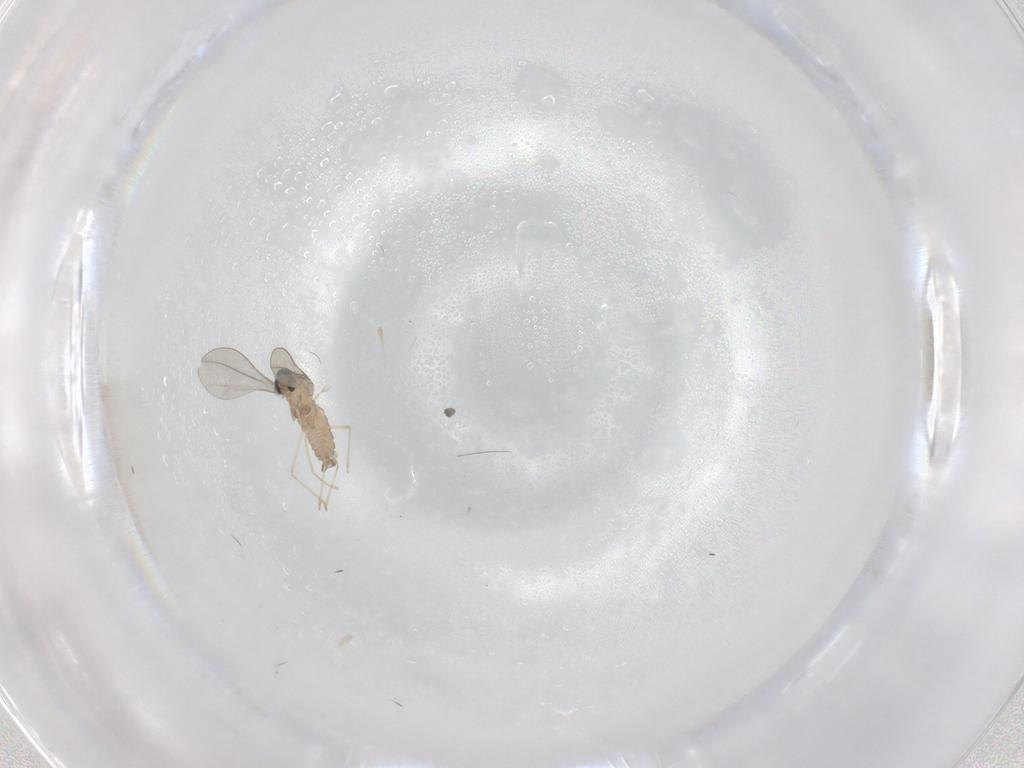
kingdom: Animalia
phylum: Arthropoda
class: Insecta
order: Diptera
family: Cecidomyiidae
